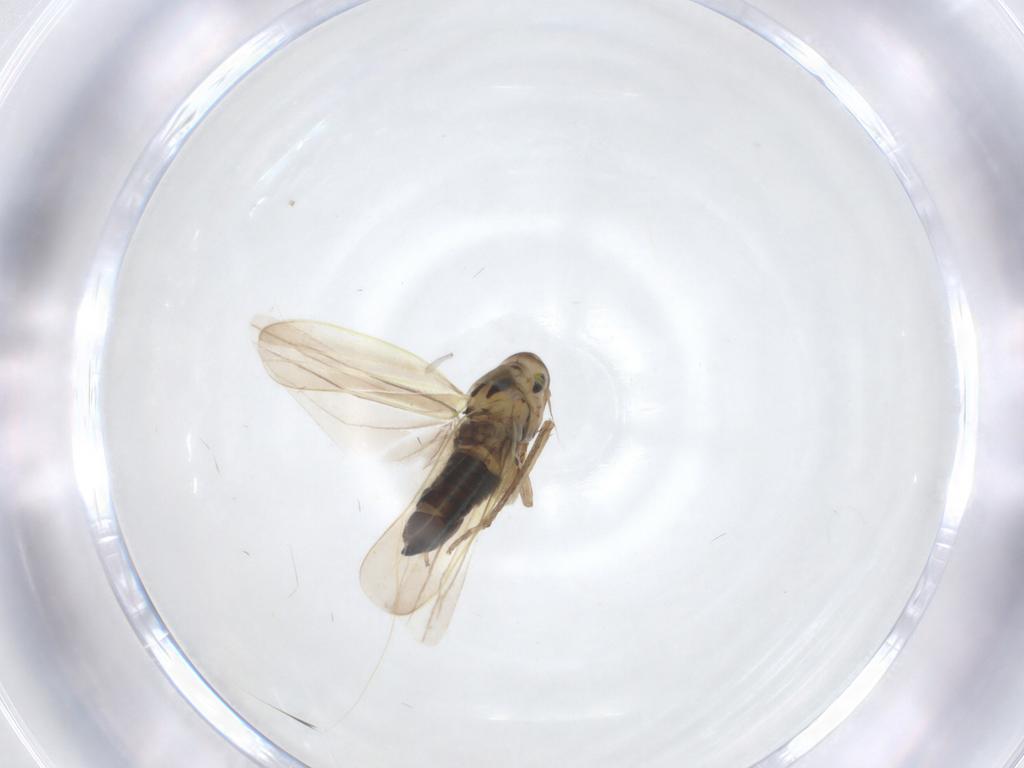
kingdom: Animalia
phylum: Arthropoda
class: Insecta
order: Hemiptera
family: Cicadellidae
